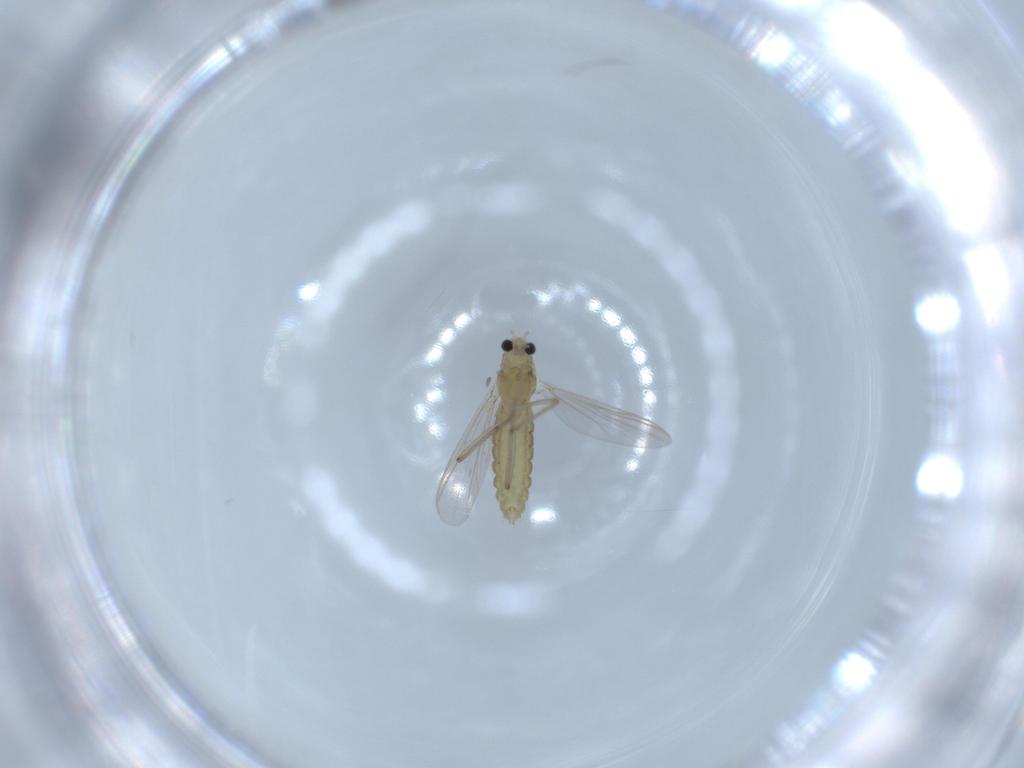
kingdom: Animalia
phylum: Arthropoda
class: Insecta
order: Diptera
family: Chironomidae
